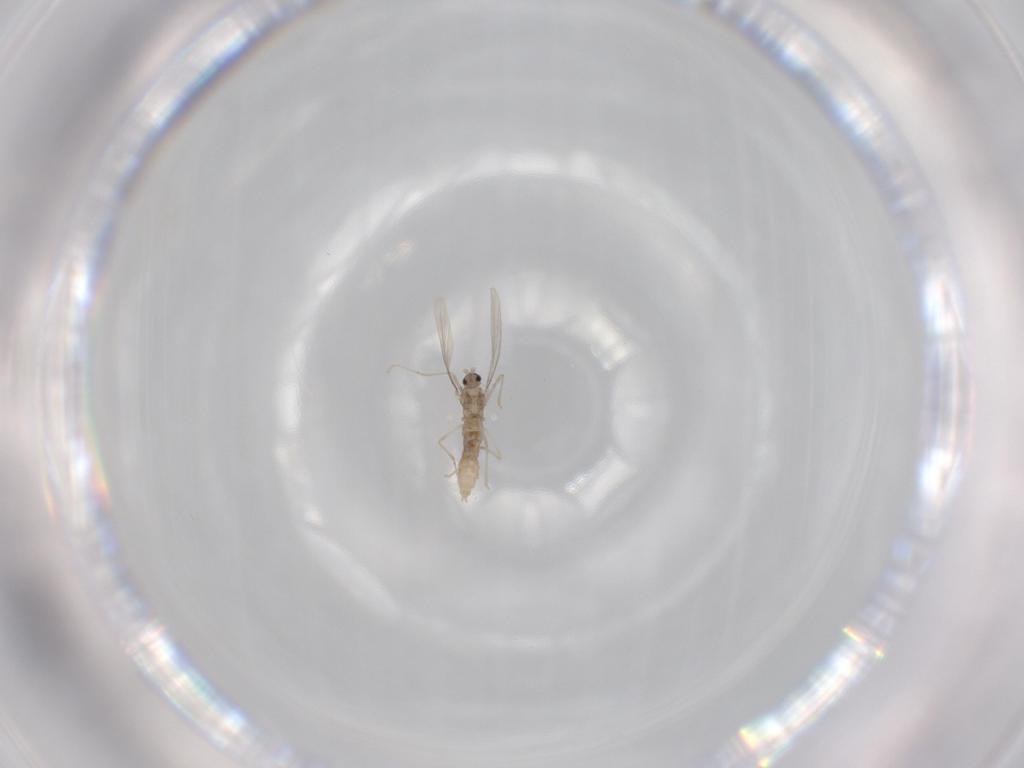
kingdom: Animalia
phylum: Arthropoda
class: Insecta
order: Diptera
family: Cecidomyiidae
